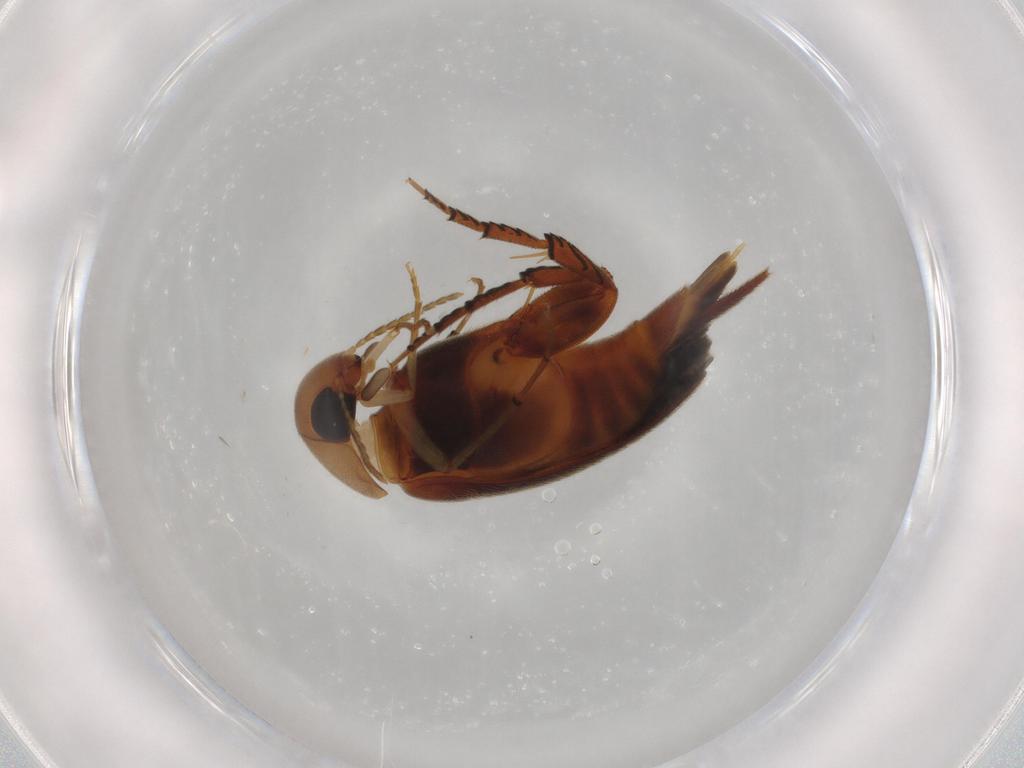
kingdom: Animalia
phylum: Arthropoda
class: Insecta
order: Coleoptera
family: Mordellidae
